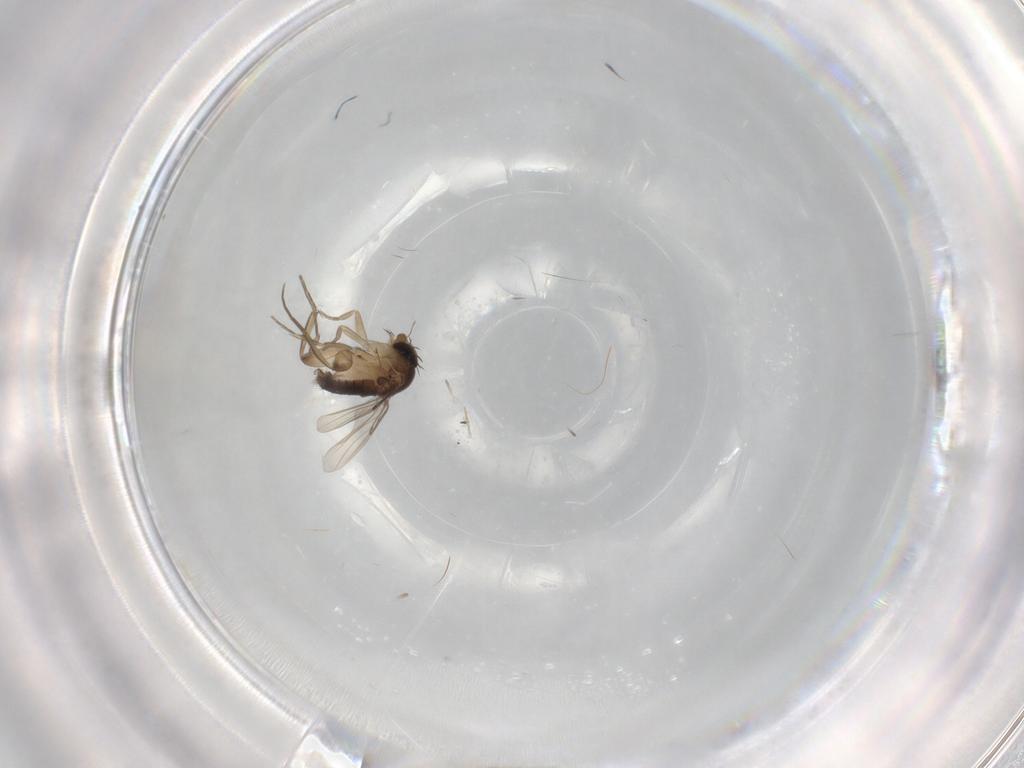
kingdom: Animalia
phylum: Arthropoda
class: Insecta
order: Diptera
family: Phoridae
